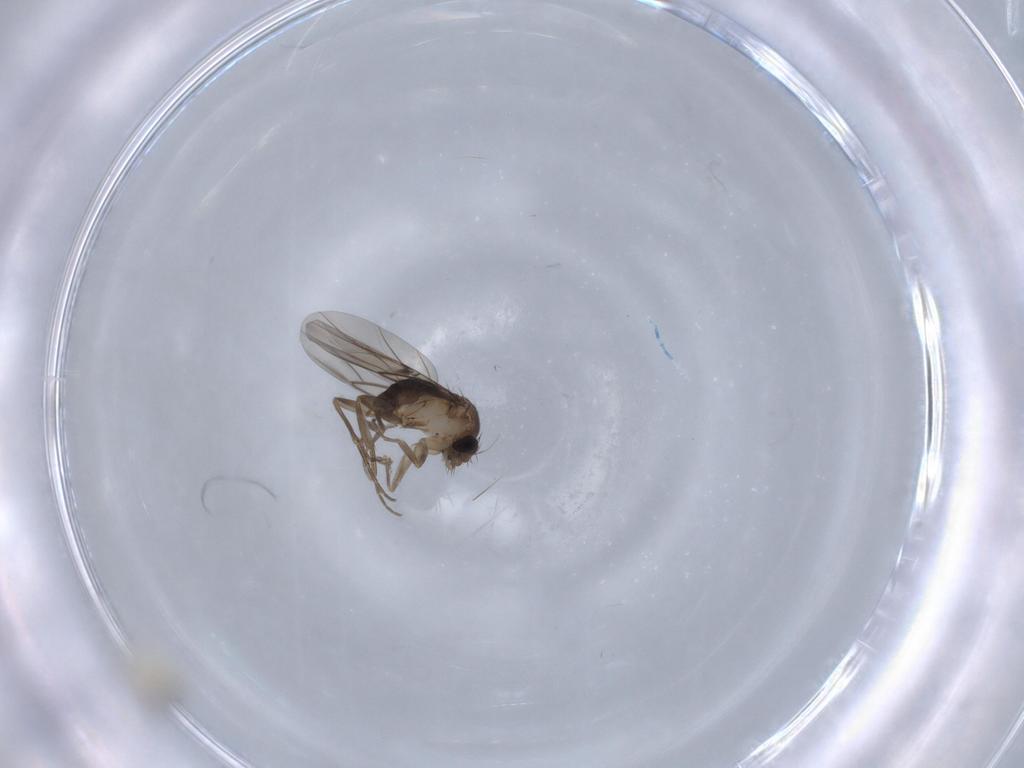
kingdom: Animalia
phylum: Arthropoda
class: Insecta
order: Diptera
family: Cecidomyiidae
